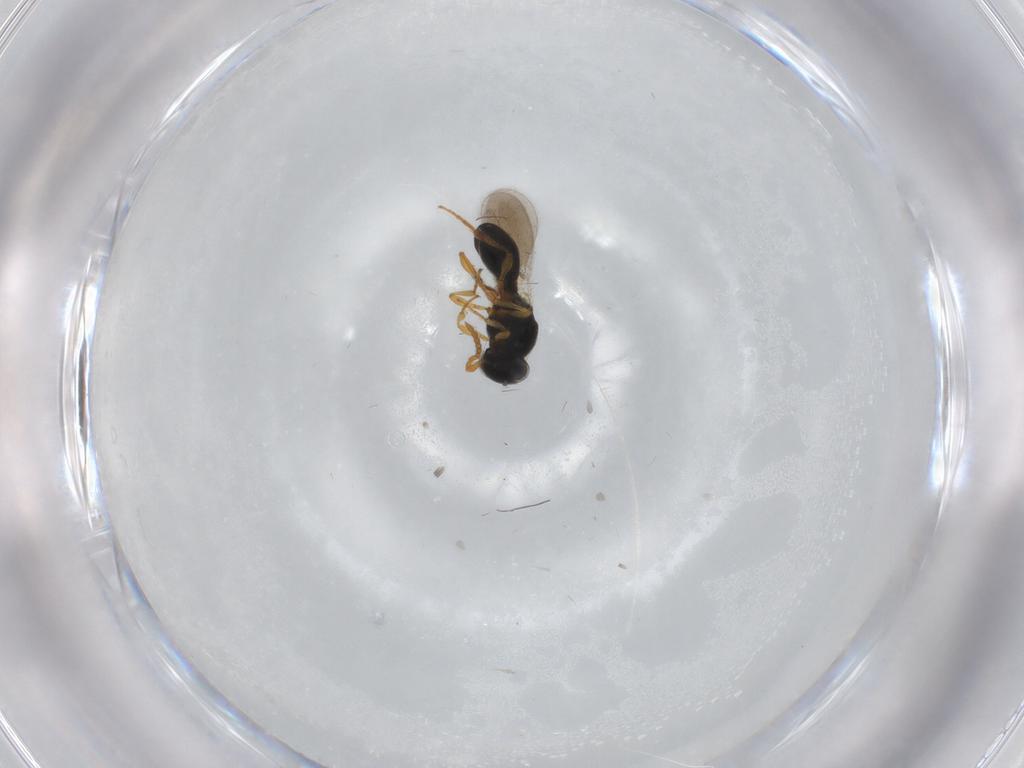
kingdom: Animalia
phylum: Arthropoda
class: Insecta
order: Hymenoptera
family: Platygastridae
